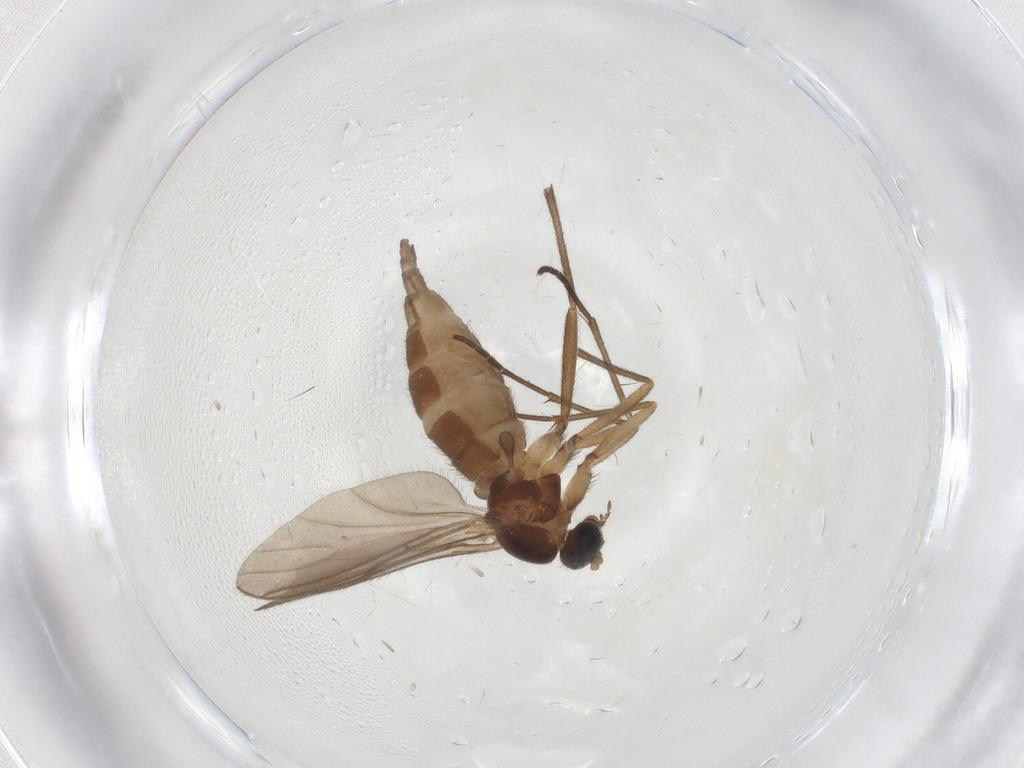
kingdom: Animalia
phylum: Arthropoda
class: Insecta
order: Diptera
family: Sciaridae
